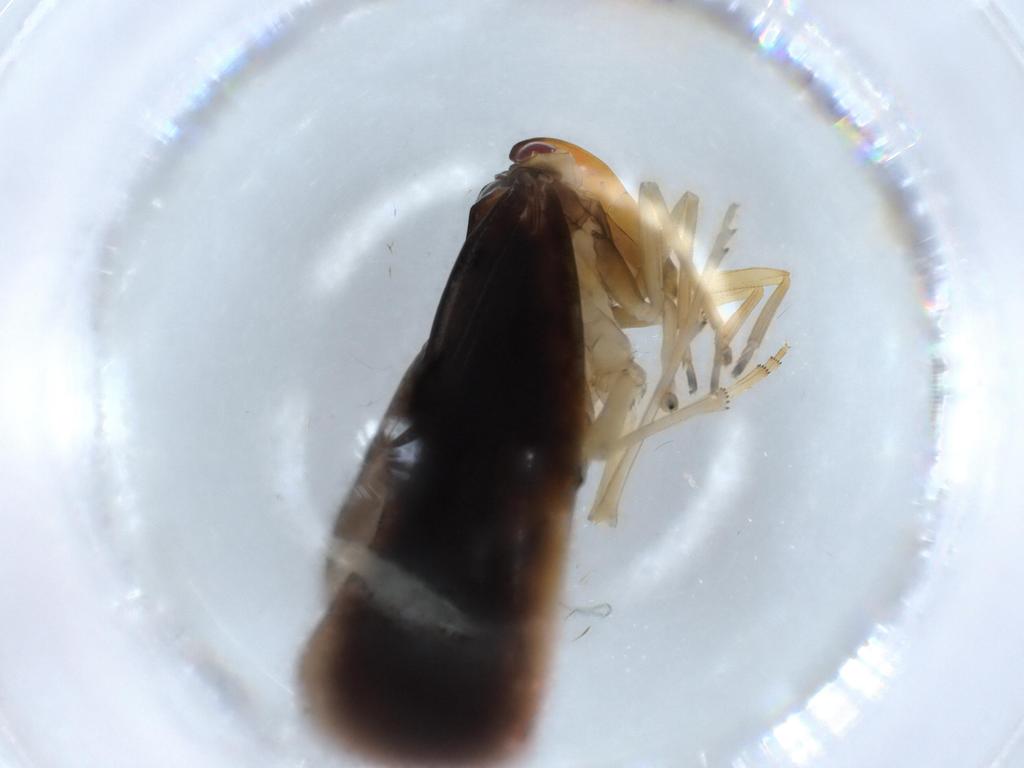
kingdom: Animalia
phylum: Arthropoda
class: Insecta
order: Hemiptera
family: Derbidae
